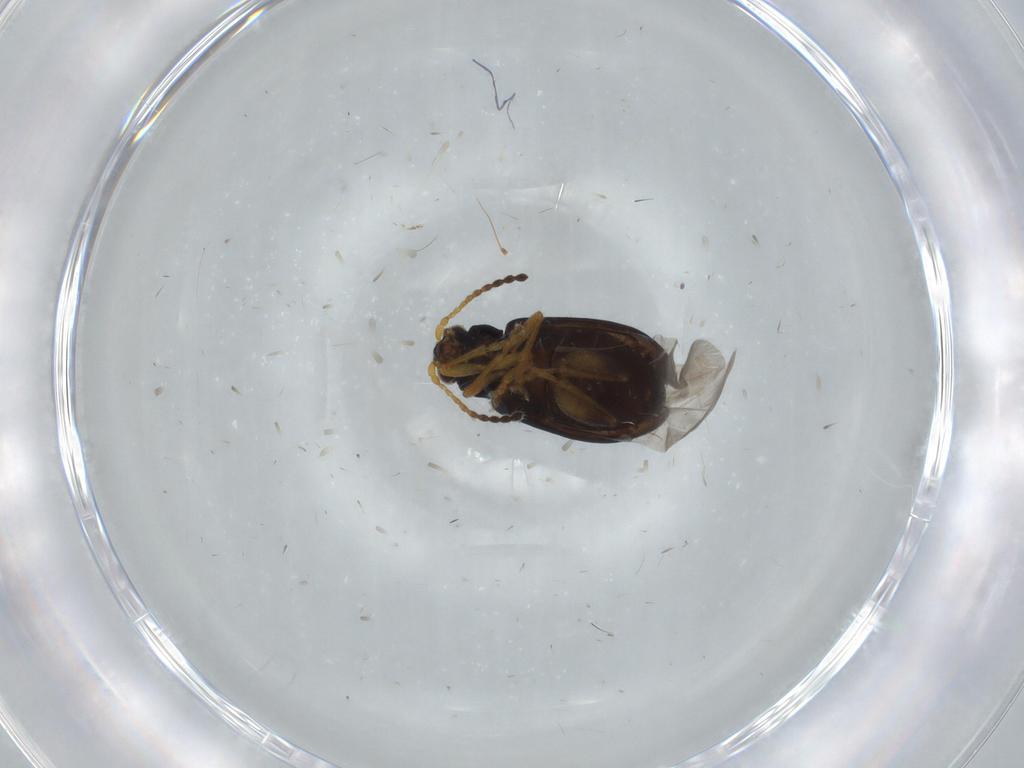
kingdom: Animalia
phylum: Arthropoda
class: Insecta
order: Coleoptera
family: Chrysomelidae
